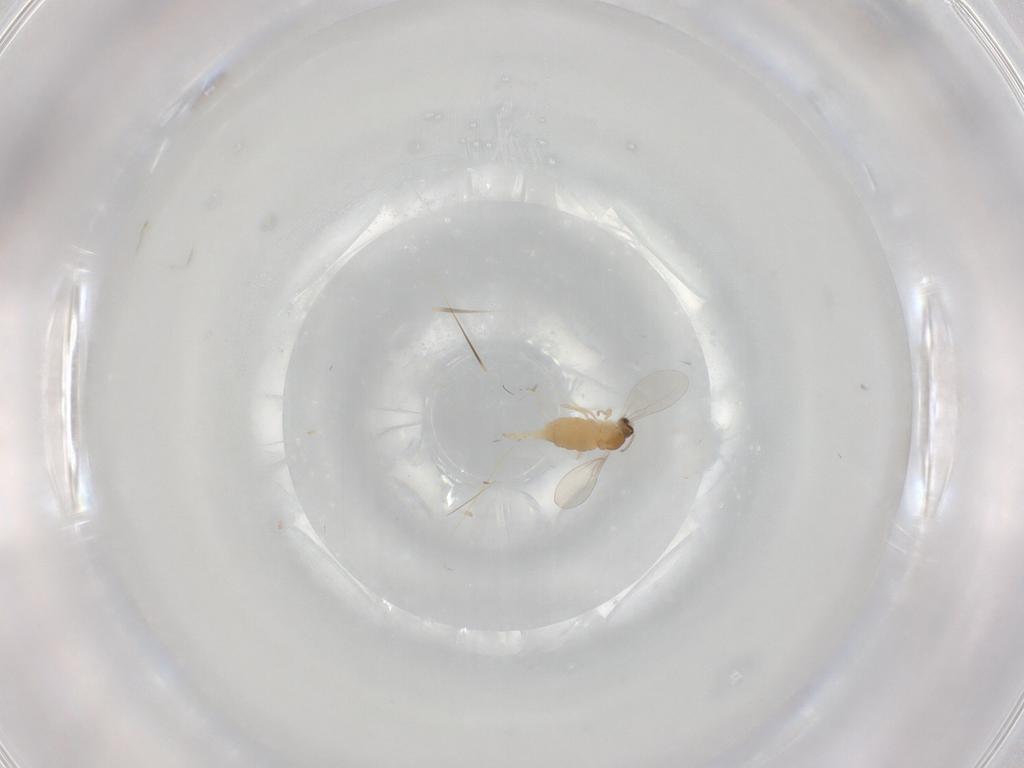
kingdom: Animalia
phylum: Arthropoda
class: Insecta
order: Diptera
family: Cecidomyiidae
